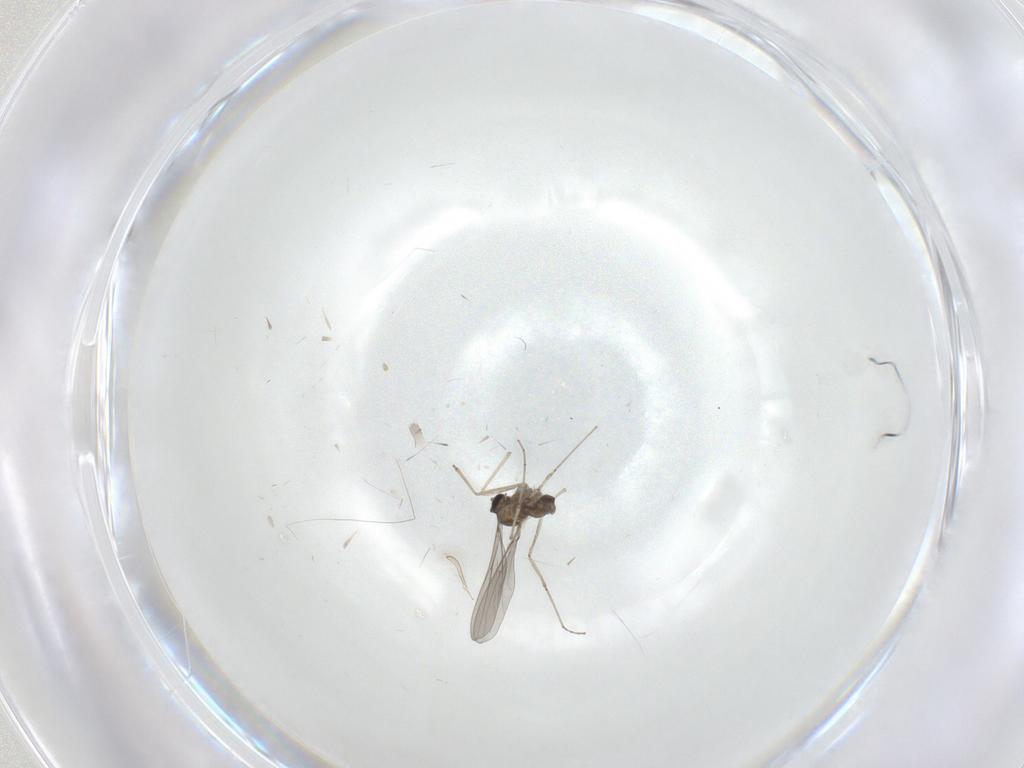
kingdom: Animalia
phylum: Arthropoda
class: Insecta
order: Diptera
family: Cecidomyiidae
